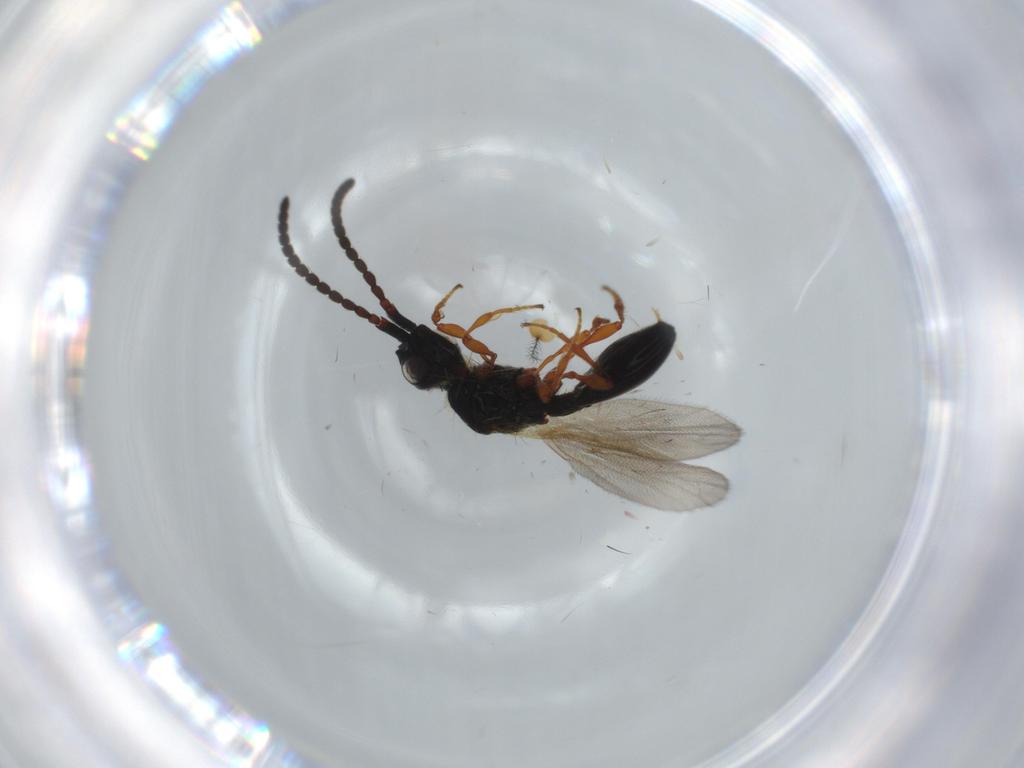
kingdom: Animalia
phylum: Arthropoda
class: Insecta
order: Hymenoptera
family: Diapriidae
